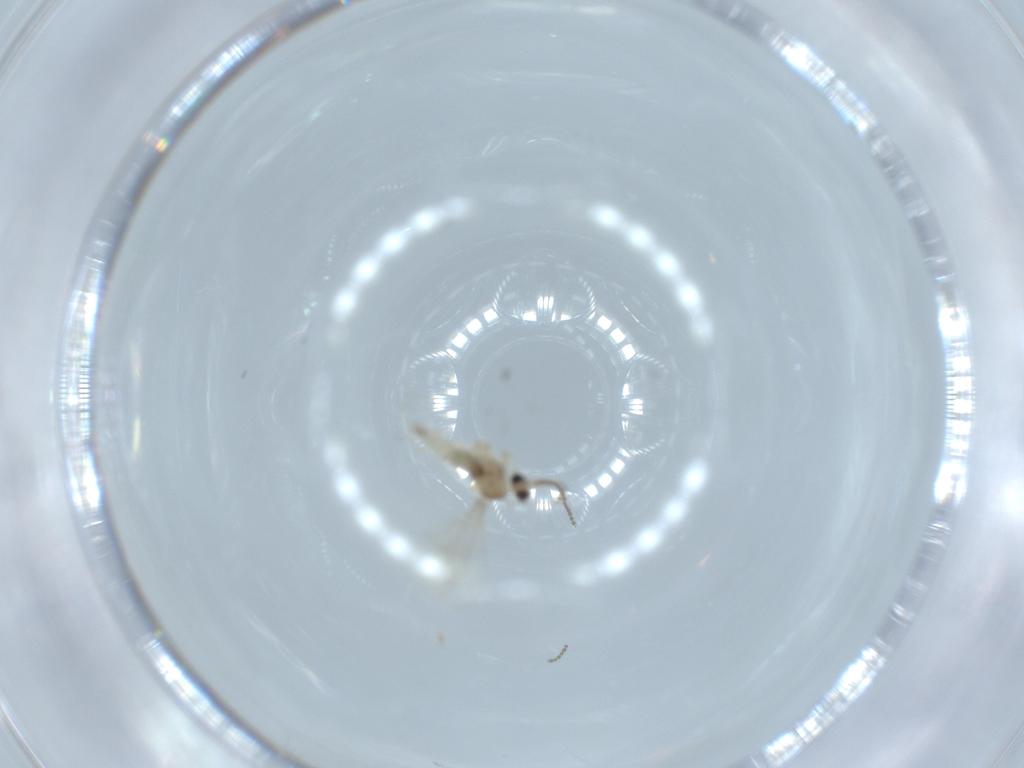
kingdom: Animalia
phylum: Arthropoda
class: Insecta
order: Diptera
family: Cecidomyiidae
